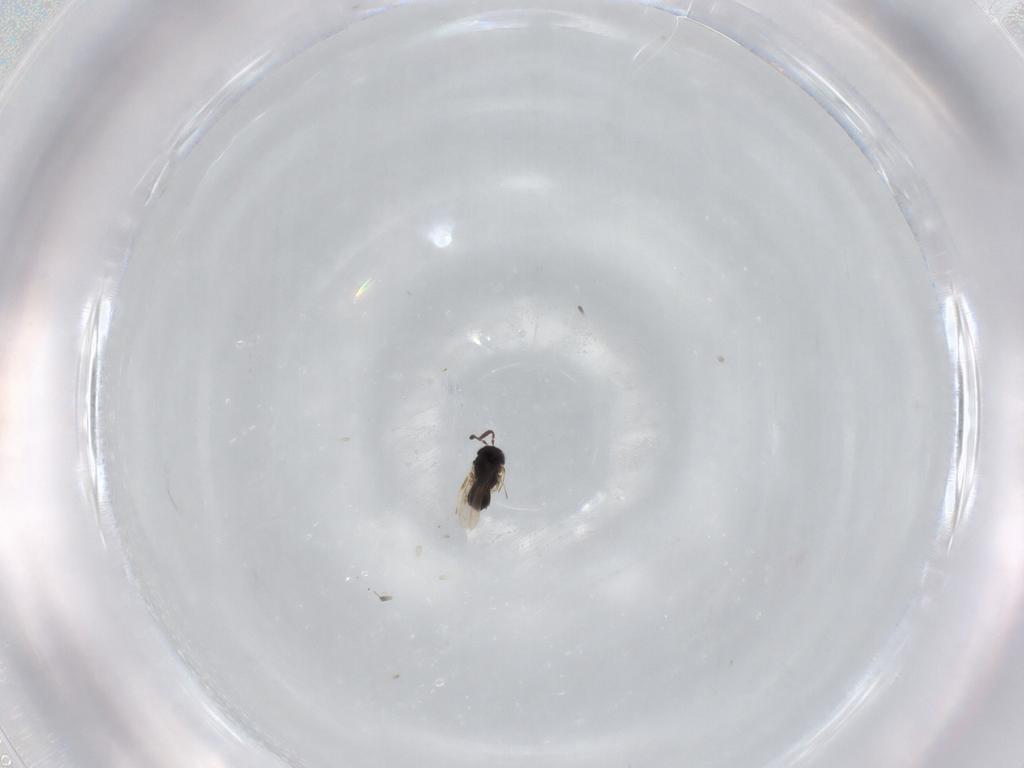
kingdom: Animalia
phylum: Arthropoda
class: Insecta
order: Hymenoptera
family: Scelionidae
